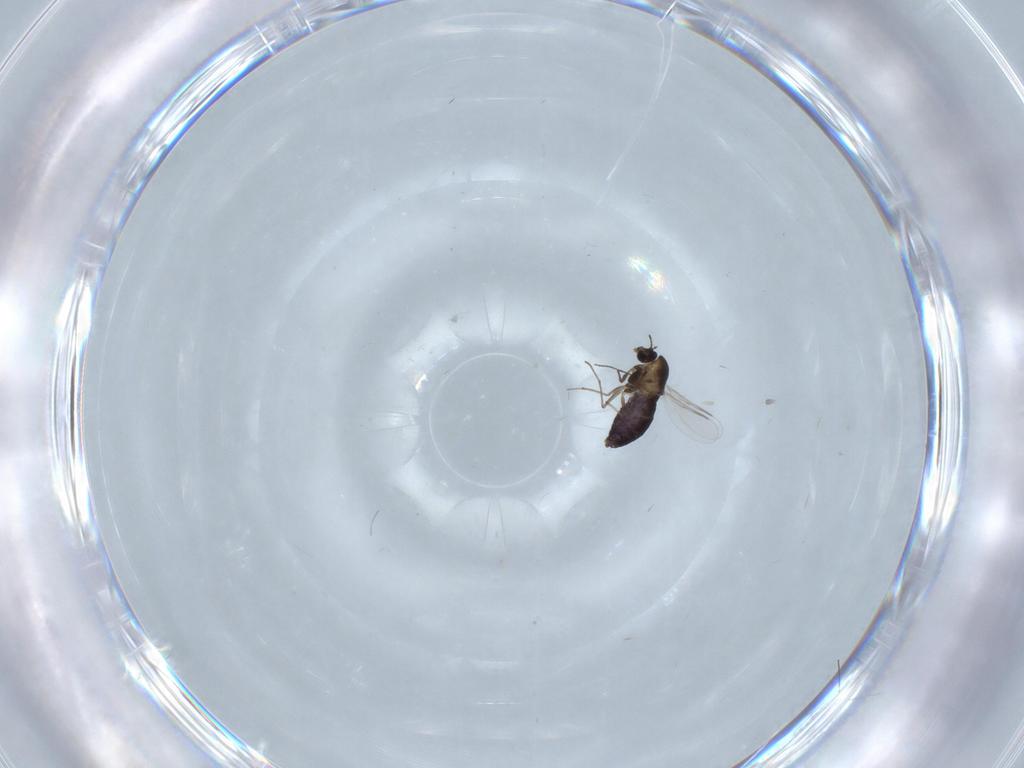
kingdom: Animalia
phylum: Arthropoda
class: Insecta
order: Diptera
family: Chironomidae
